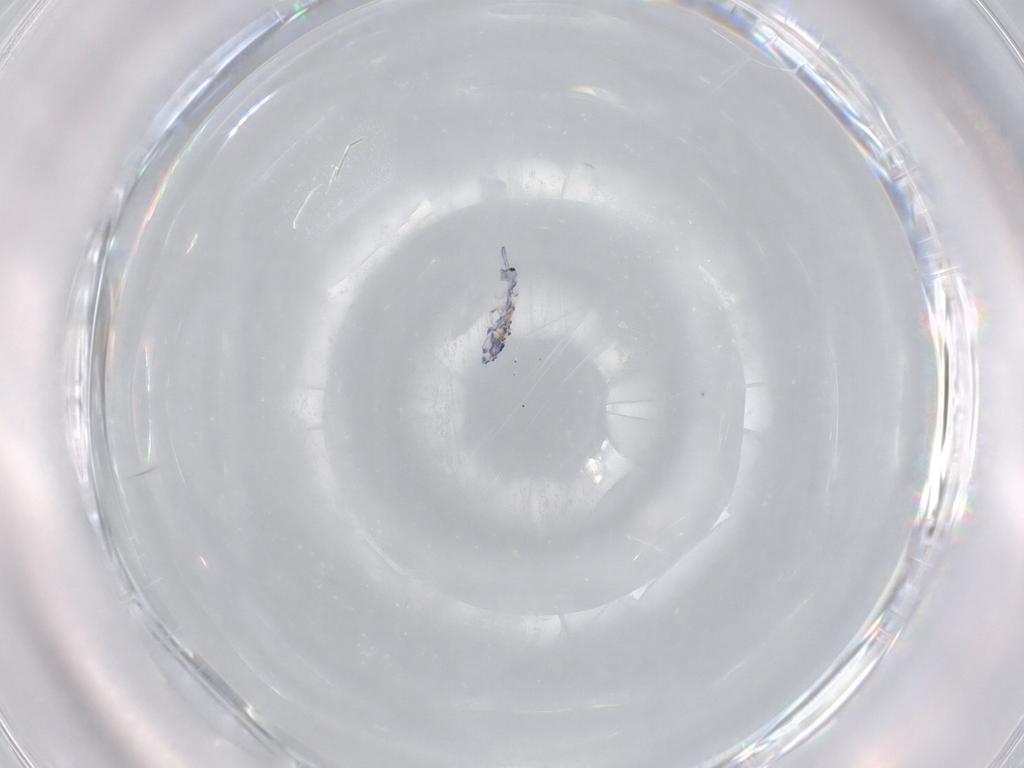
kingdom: Animalia
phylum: Arthropoda
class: Collembola
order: Entomobryomorpha
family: Entomobryidae
